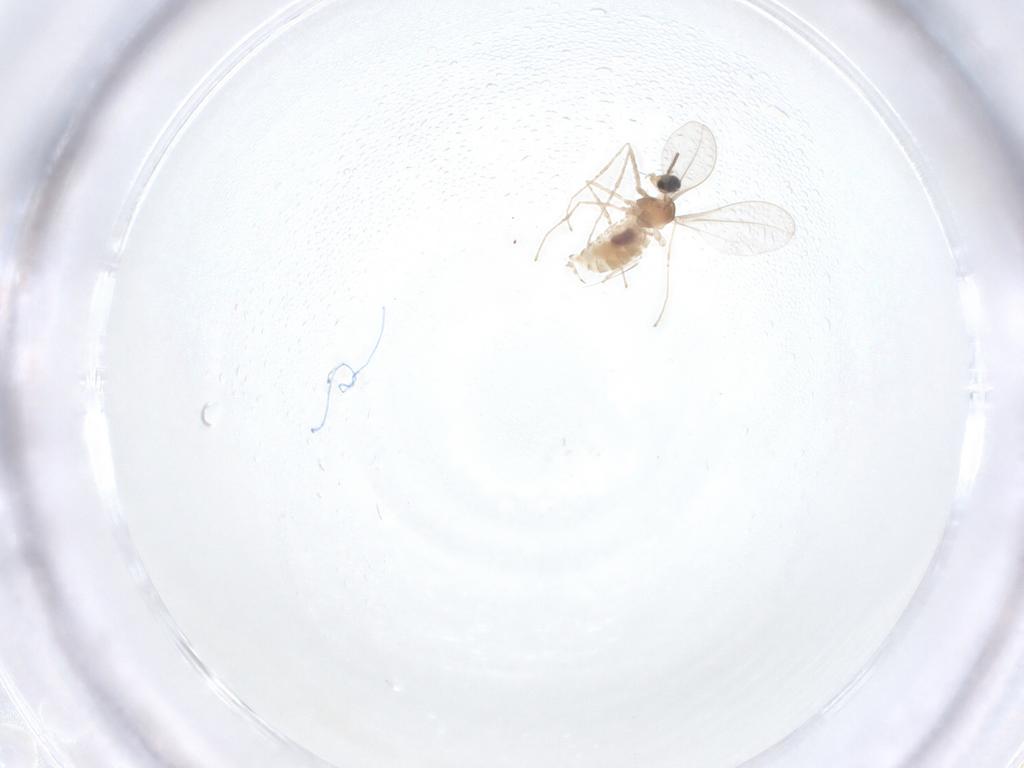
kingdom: Animalia
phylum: Arthropoda
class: Insecta
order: Diptera
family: Cecidomyiidae
